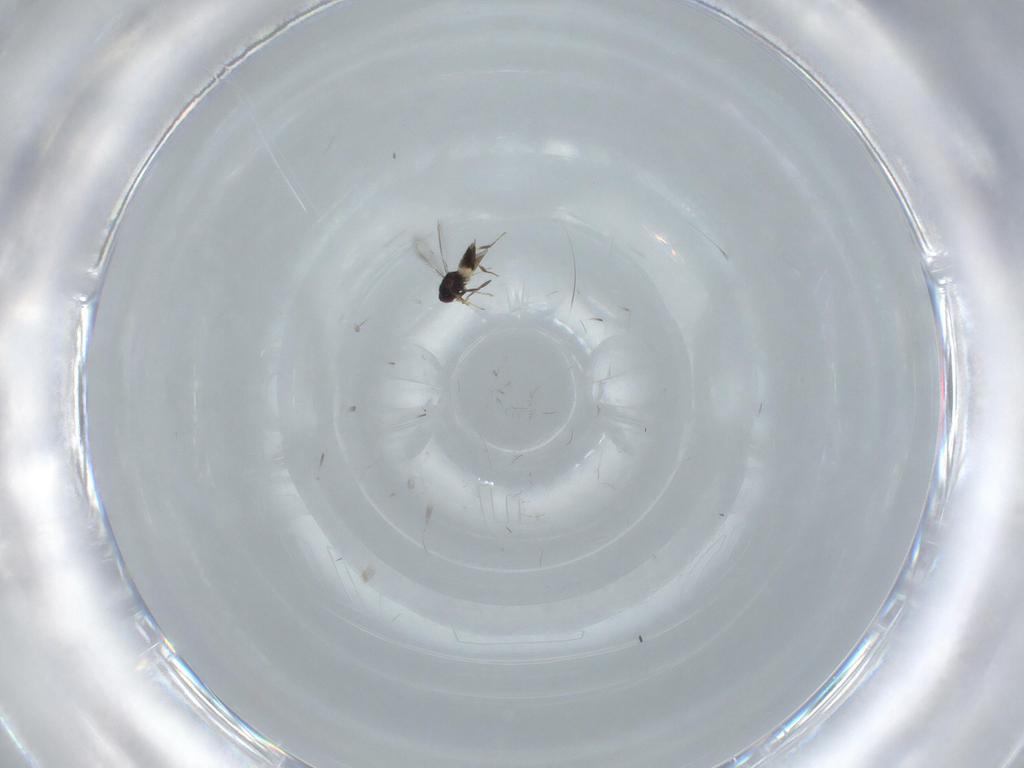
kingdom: Animalia
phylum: Arthropoda
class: Insecta
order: Hymenoptera
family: Mymaridae
